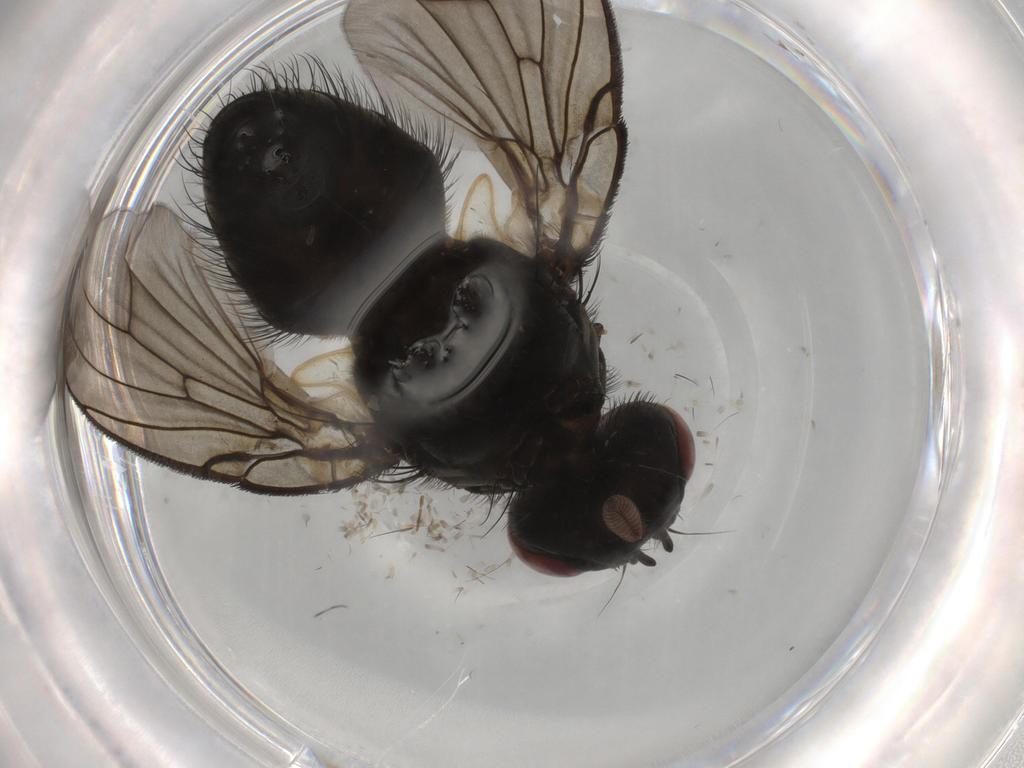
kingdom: Animalia
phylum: Arthropoda
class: Insecta
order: Diptera
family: Muscidae
